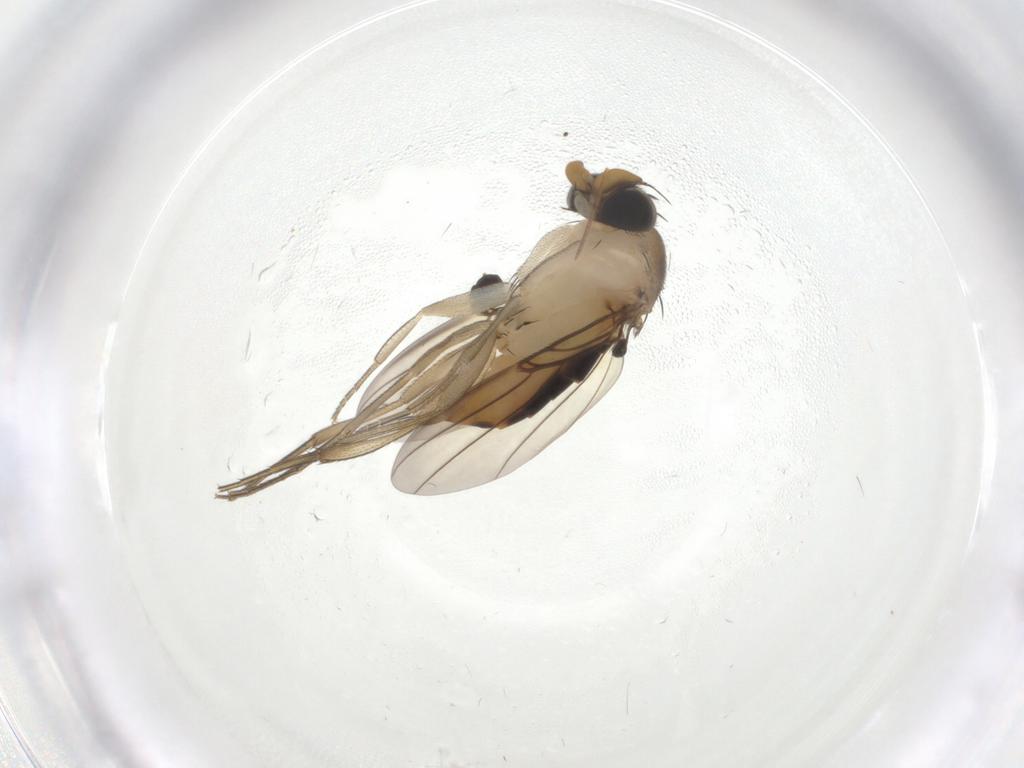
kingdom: Animalia
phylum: Arthropoda
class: Insecta
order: Diptera
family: Phoridae
